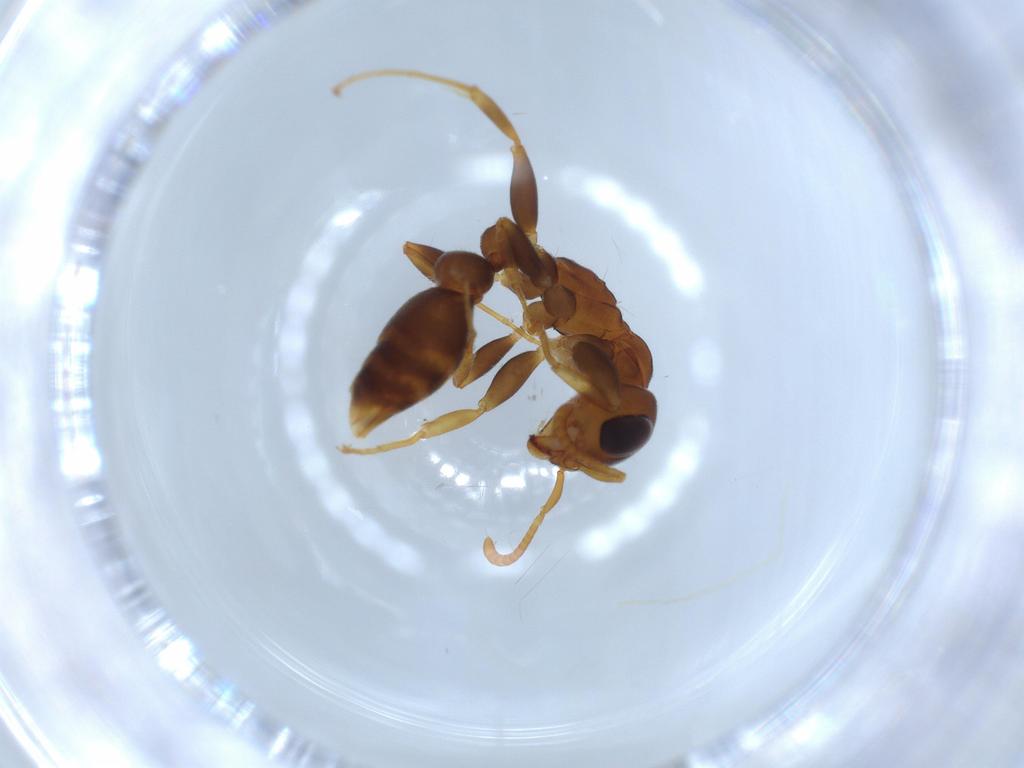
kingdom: Animalia
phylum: Arthropoda
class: Insecta
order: Hymenoptera
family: Formicidae
